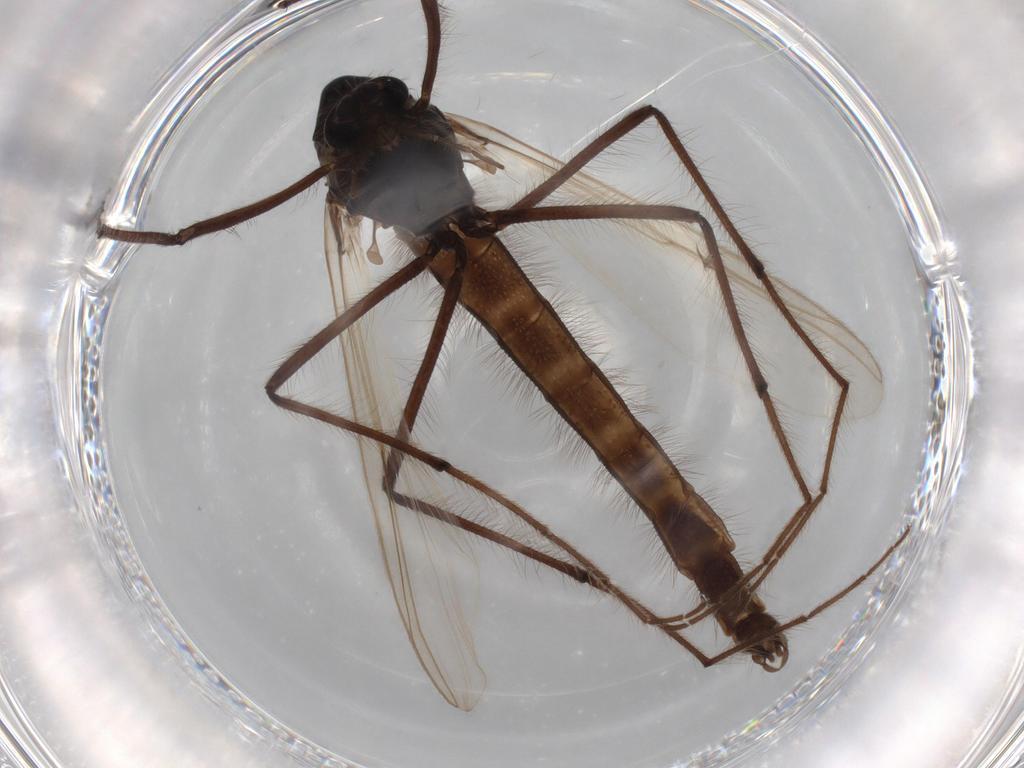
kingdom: Animalia
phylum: Arthropoda
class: Insecta
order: Diptera
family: Chironomidae
